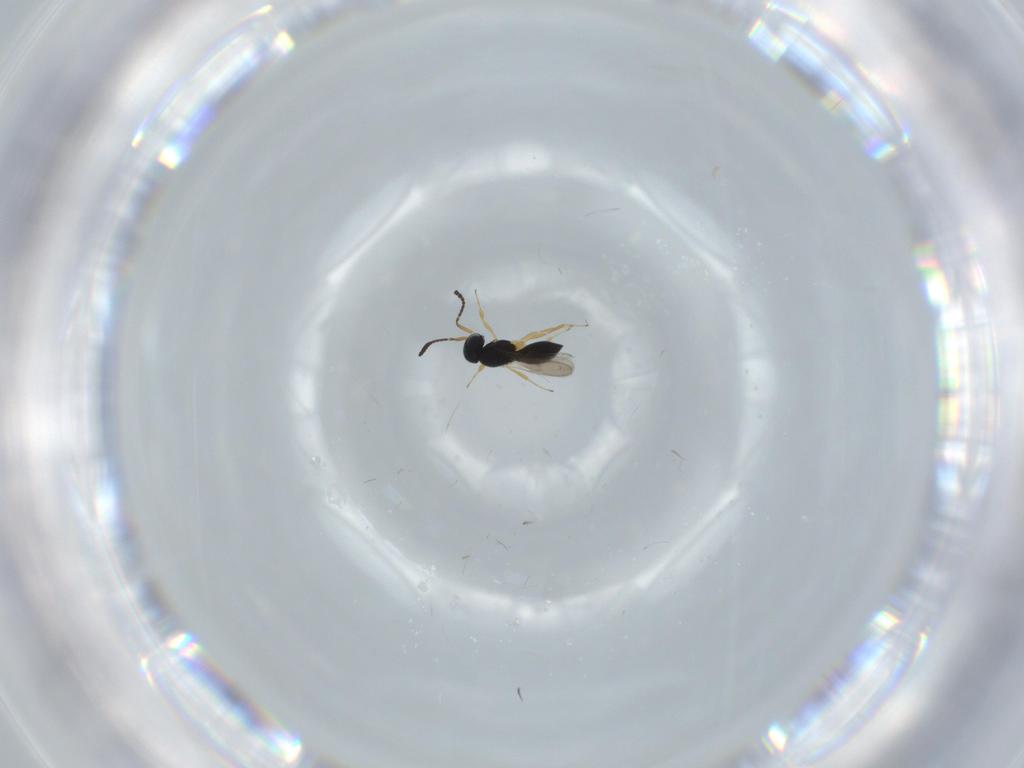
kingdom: Animalia
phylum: Arthropoda
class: Insecta
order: Hymenoptera
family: Scelionidae
